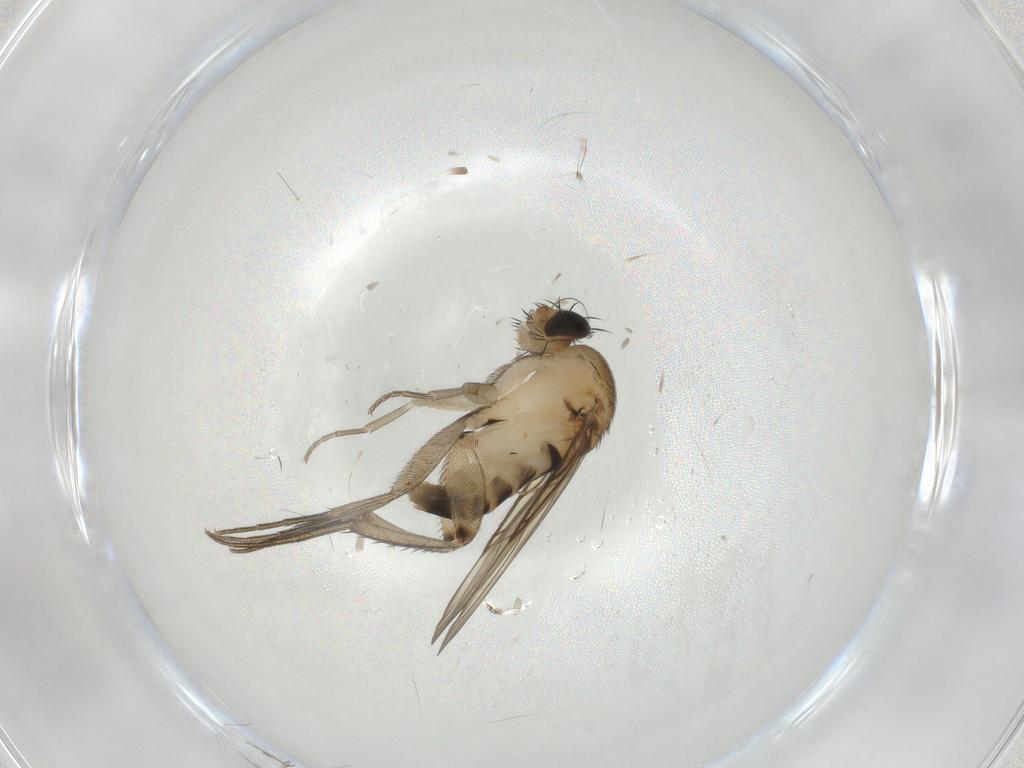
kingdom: Animalia
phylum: Arthropoda
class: Insecta
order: Diptera
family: Phoridae
